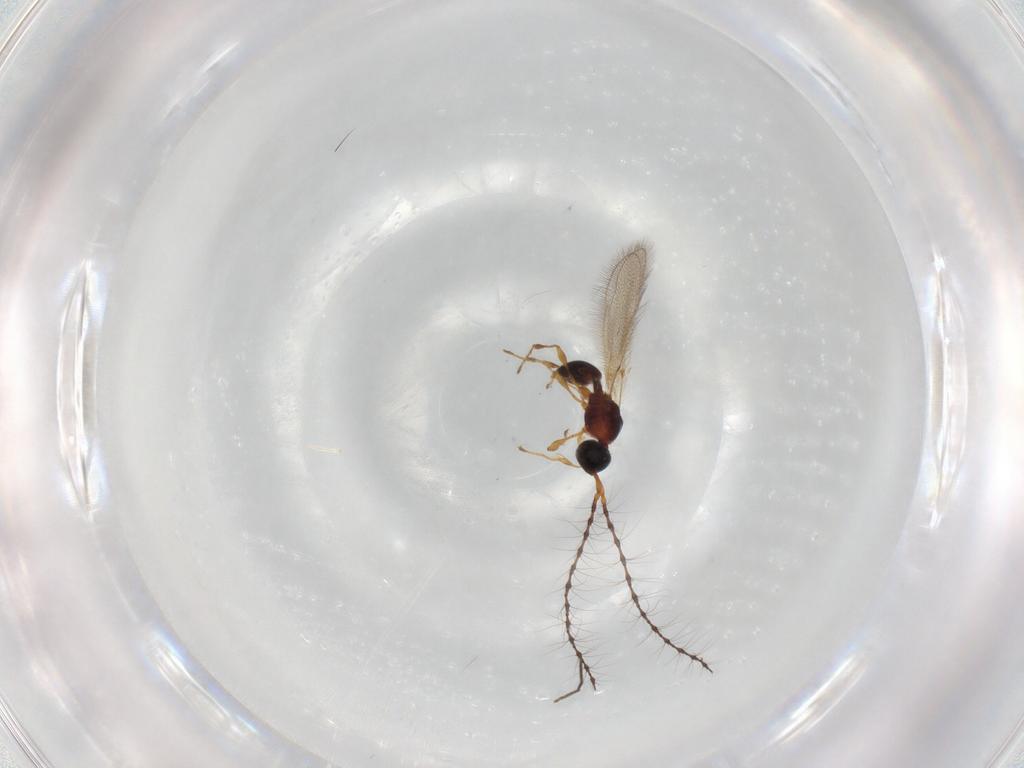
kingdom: Animalia
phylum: Arthropoda
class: Insecta
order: Hymenoptera
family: Diapriidae
